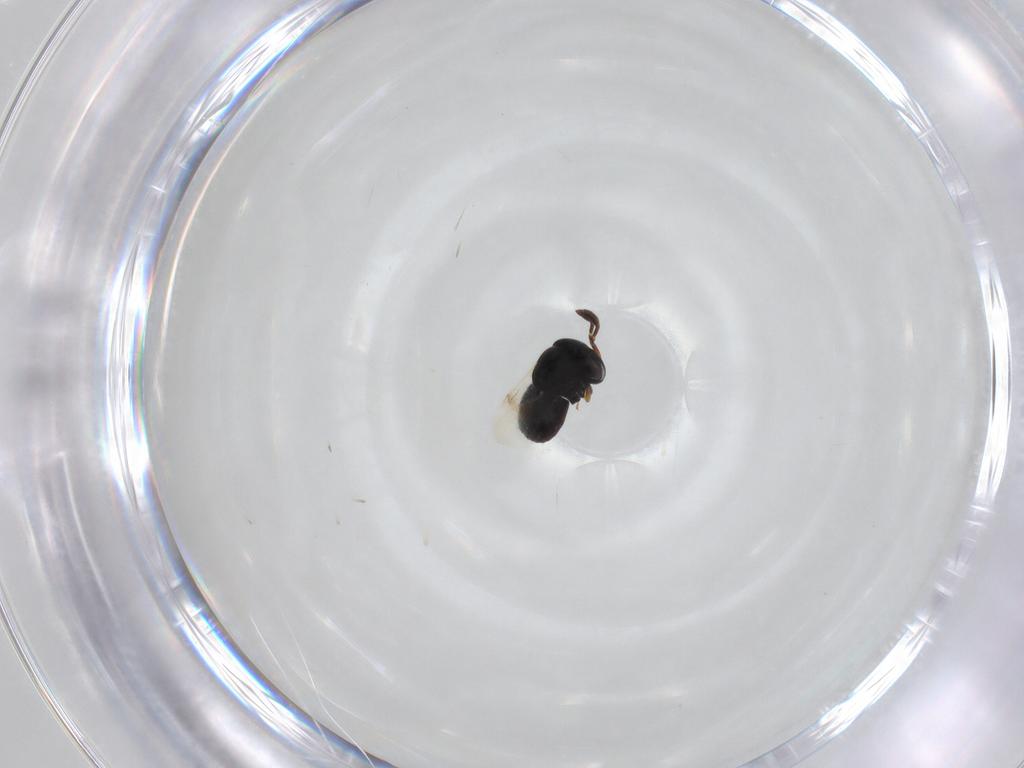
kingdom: Animalia
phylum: Arthropoda
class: Insecta
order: Hymenoptera
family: Scelionidae
